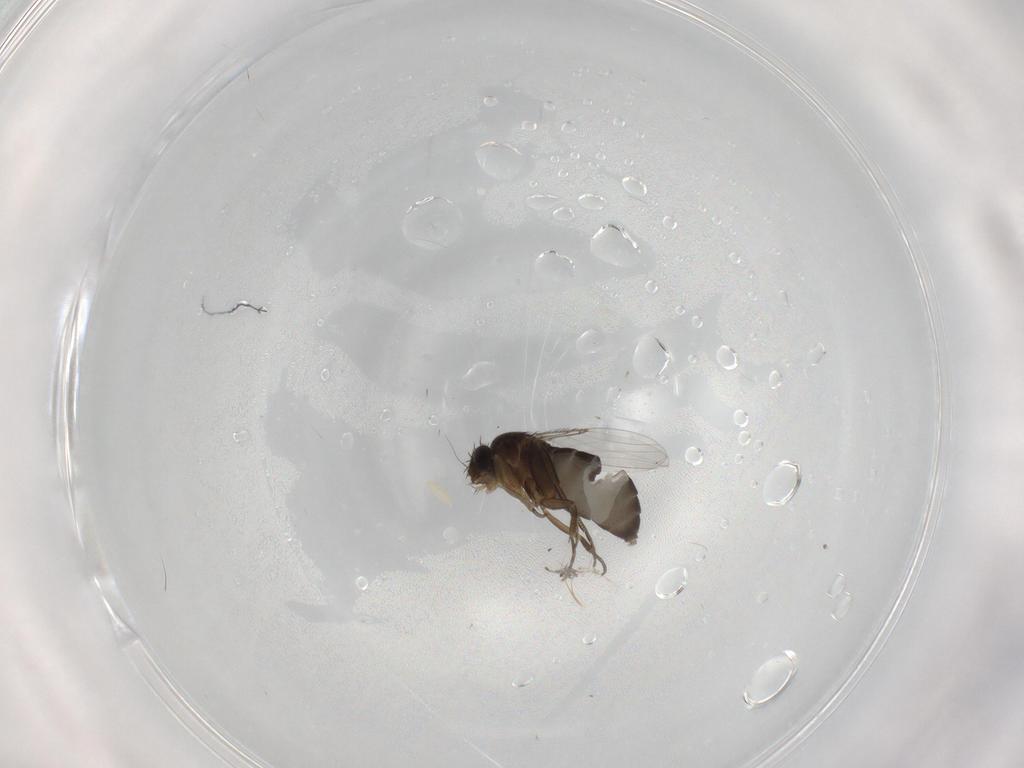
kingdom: Animalia
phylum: Arthropoda
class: Insecta
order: Diptera
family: Phoridae
